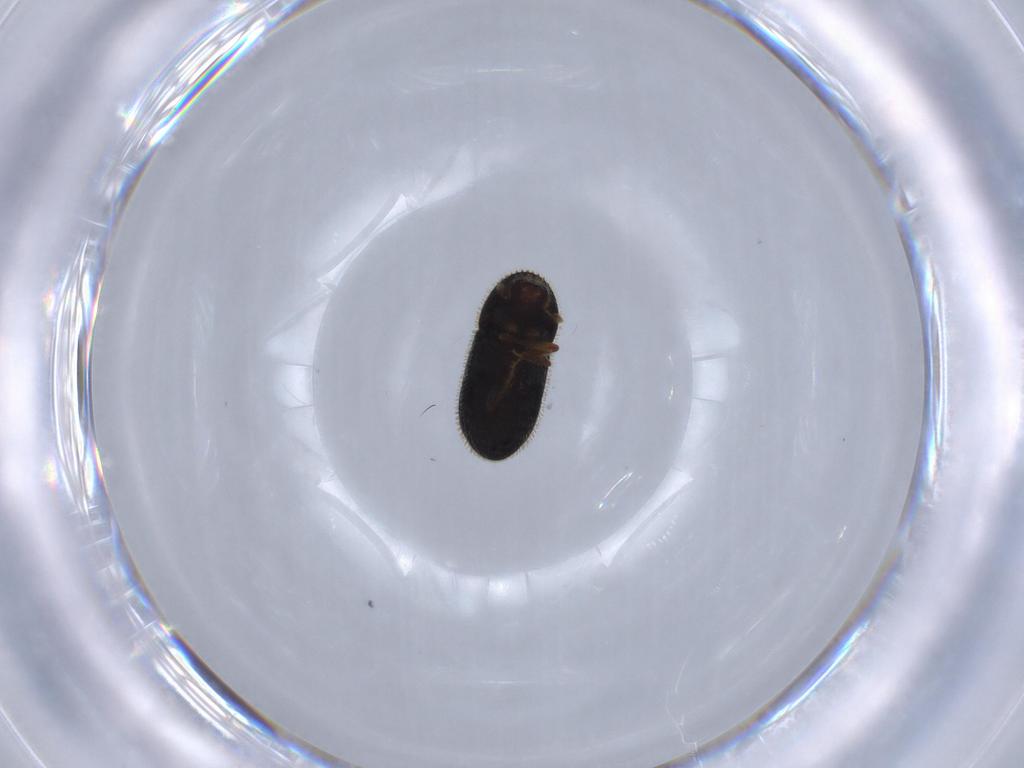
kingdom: Animalia
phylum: Arthropoda
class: Insecta
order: Coleoptera
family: Curculionidae
